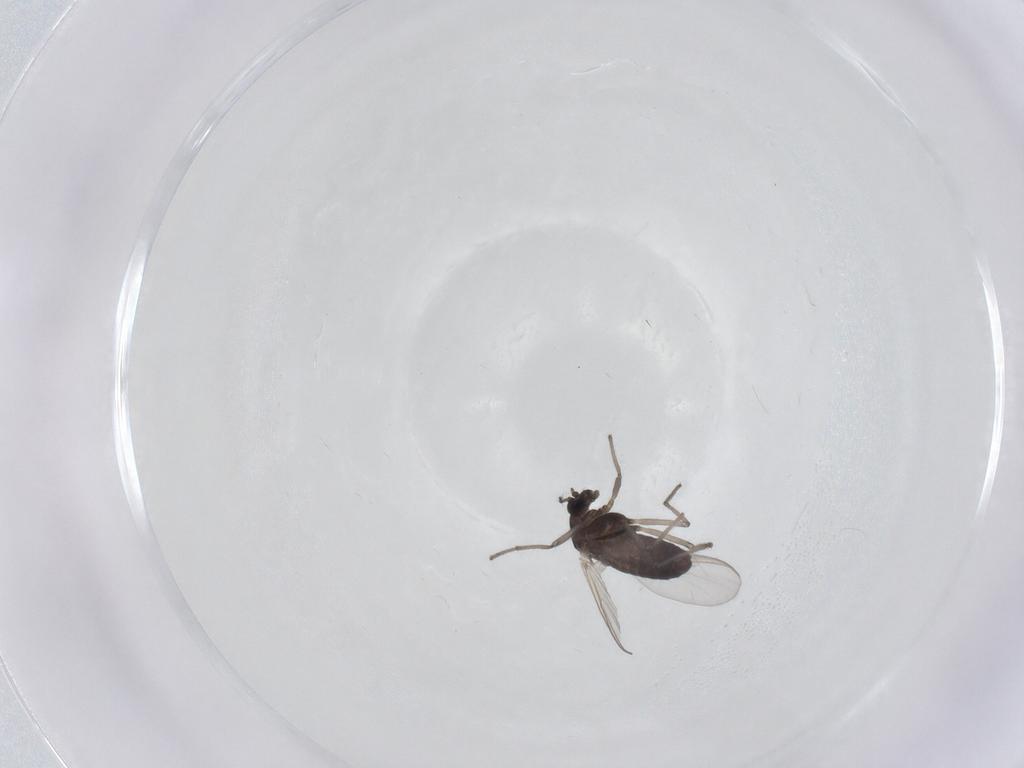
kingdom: Animalia
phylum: Arthropoda
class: Insecta
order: Diptera
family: Chironomidae
